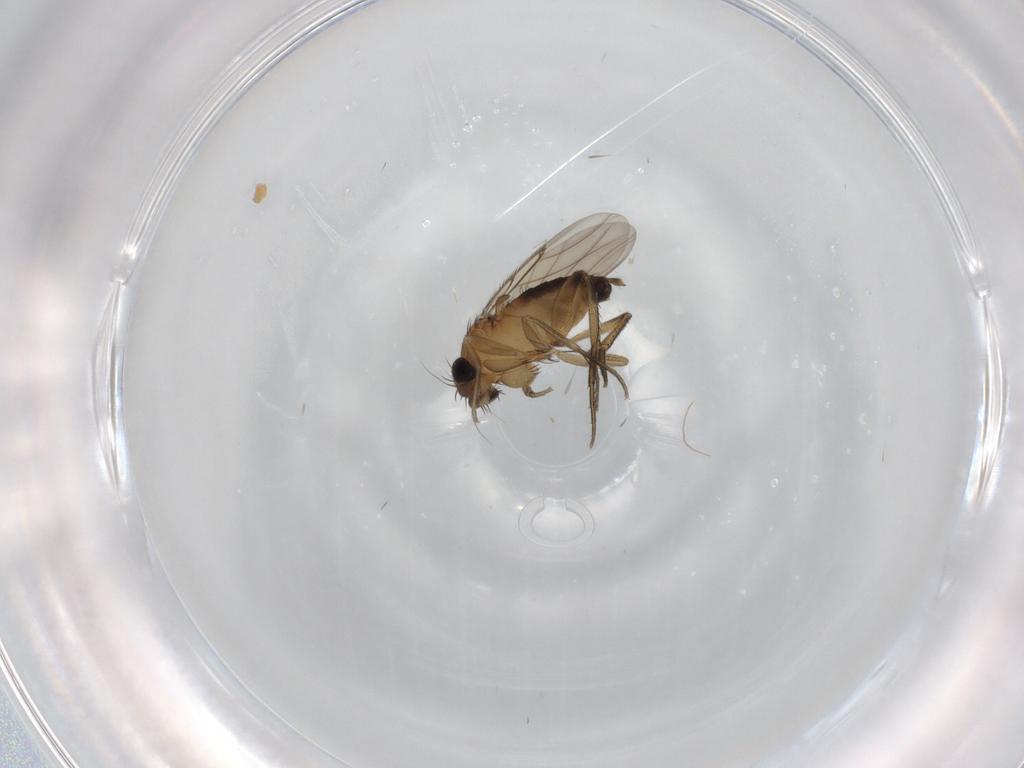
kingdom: Animalia
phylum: Arthropoda
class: Insecta
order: Diptera
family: Phoridae
